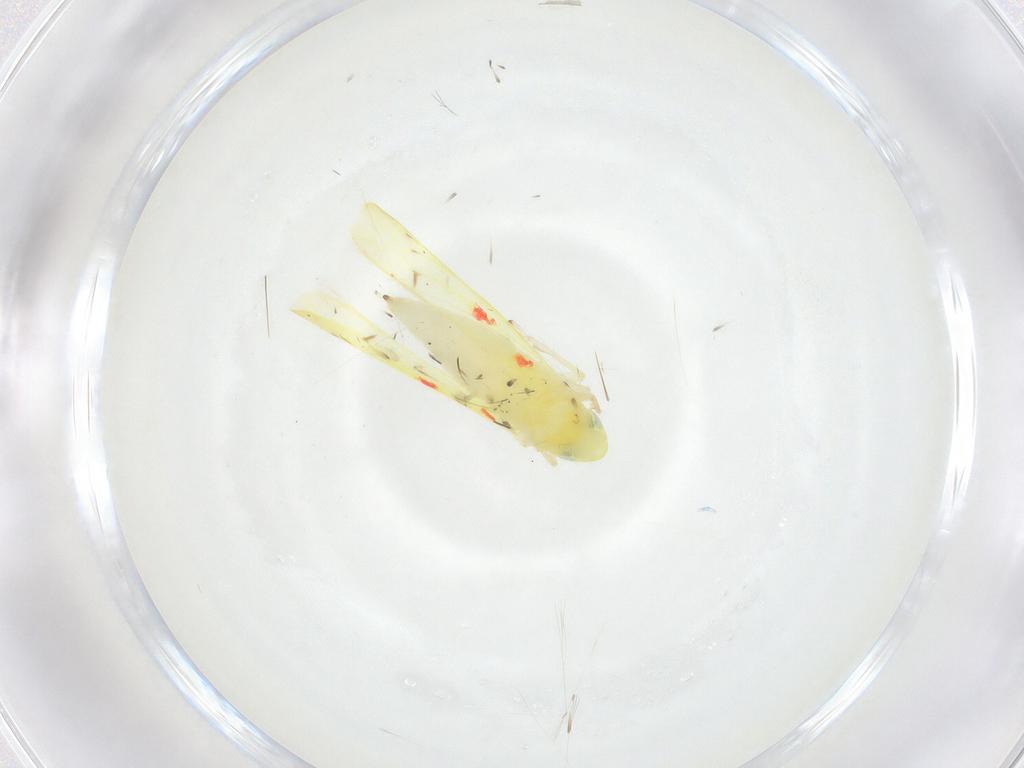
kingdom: Animalia
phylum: Arthropoda
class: Insecta
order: Hemiptera
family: Cicadellidae
